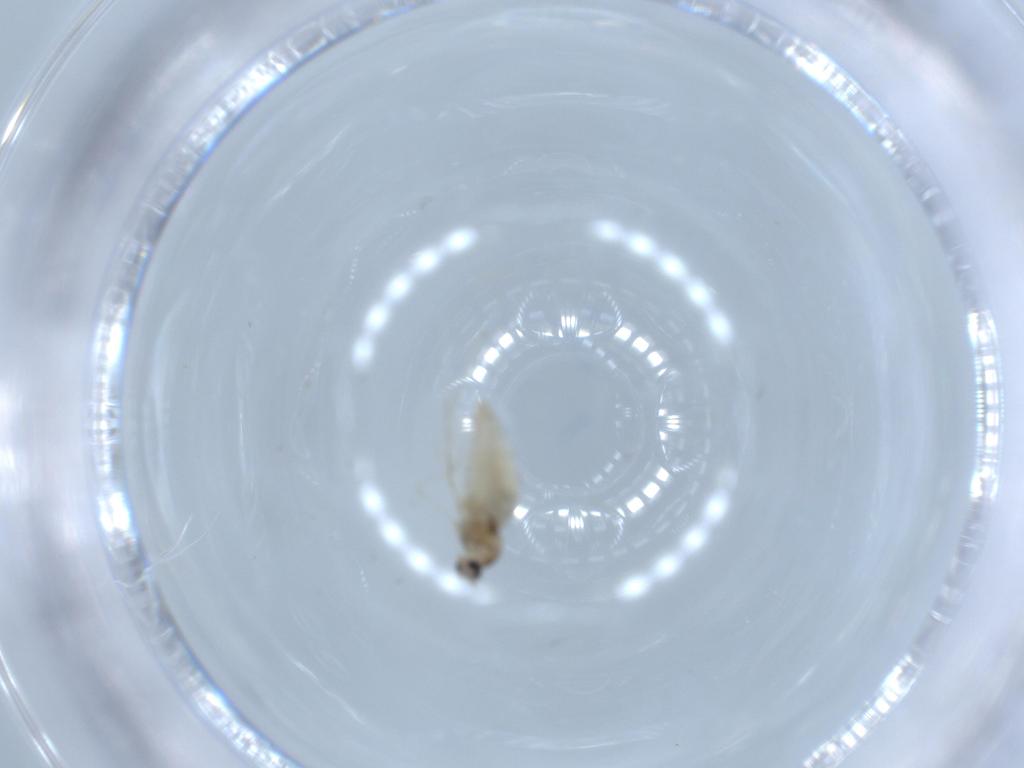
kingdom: Animalia
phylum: Arthropoda
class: Insecta
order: Diptera
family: Cecidomyiidae
